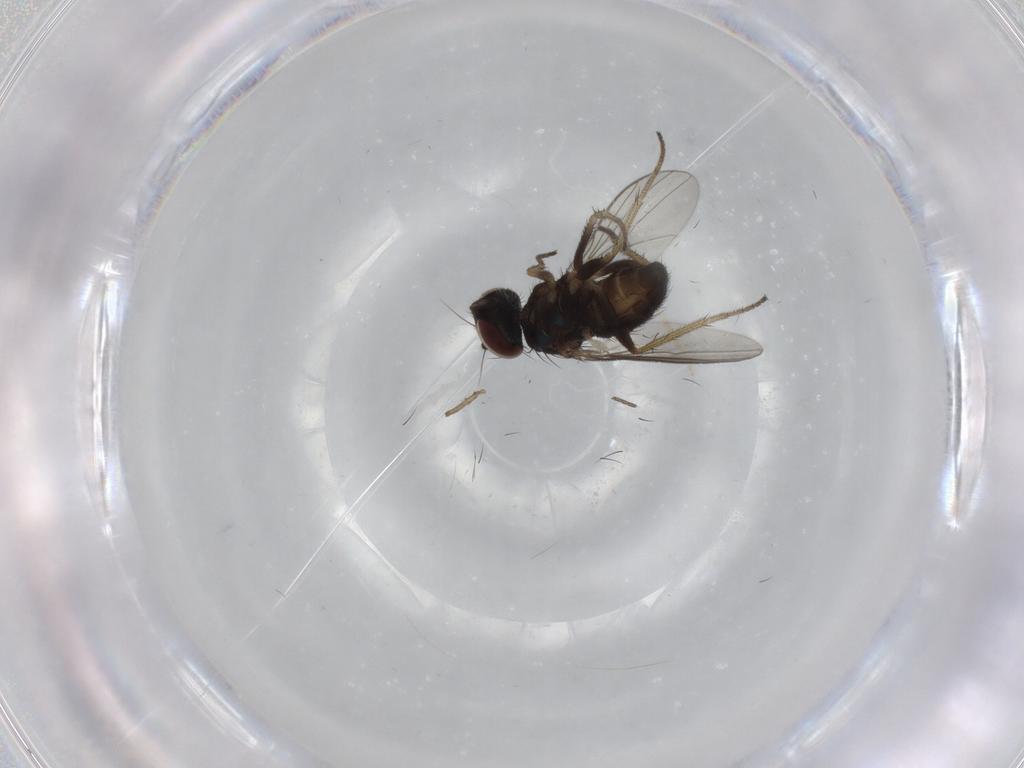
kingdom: Animalia
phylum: Arthropoda
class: Insecta
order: Diptera
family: Dolichopodidae
